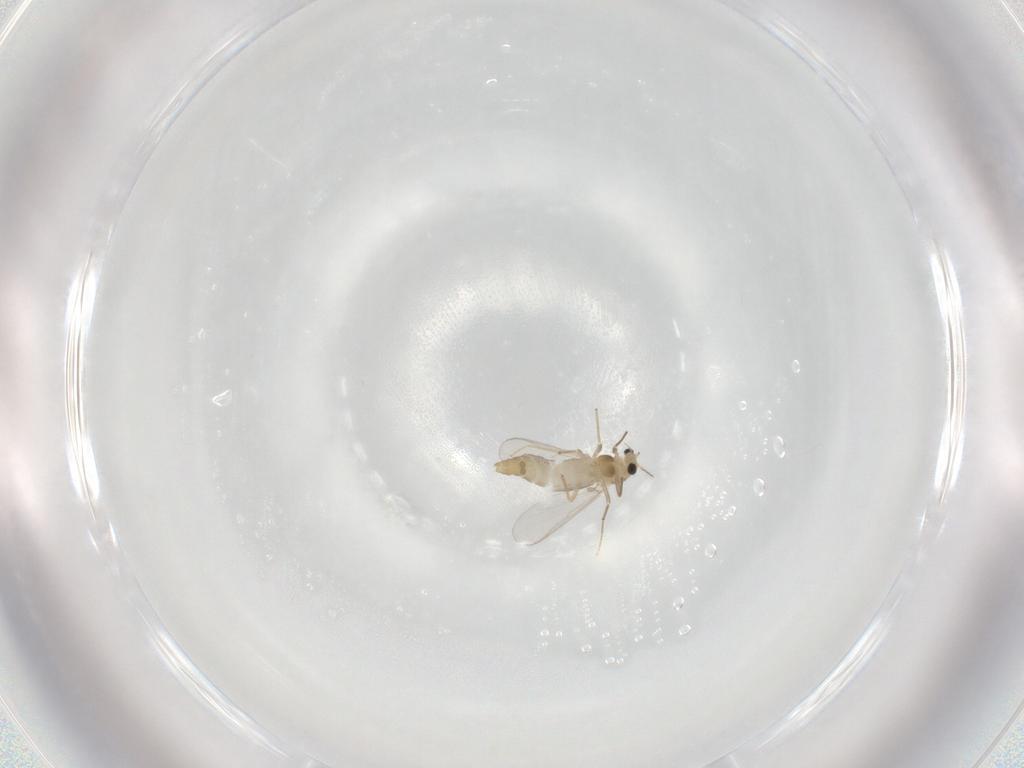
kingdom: Animalia
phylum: Arthropoda
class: Insecta
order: Diptera
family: Chironomidae
